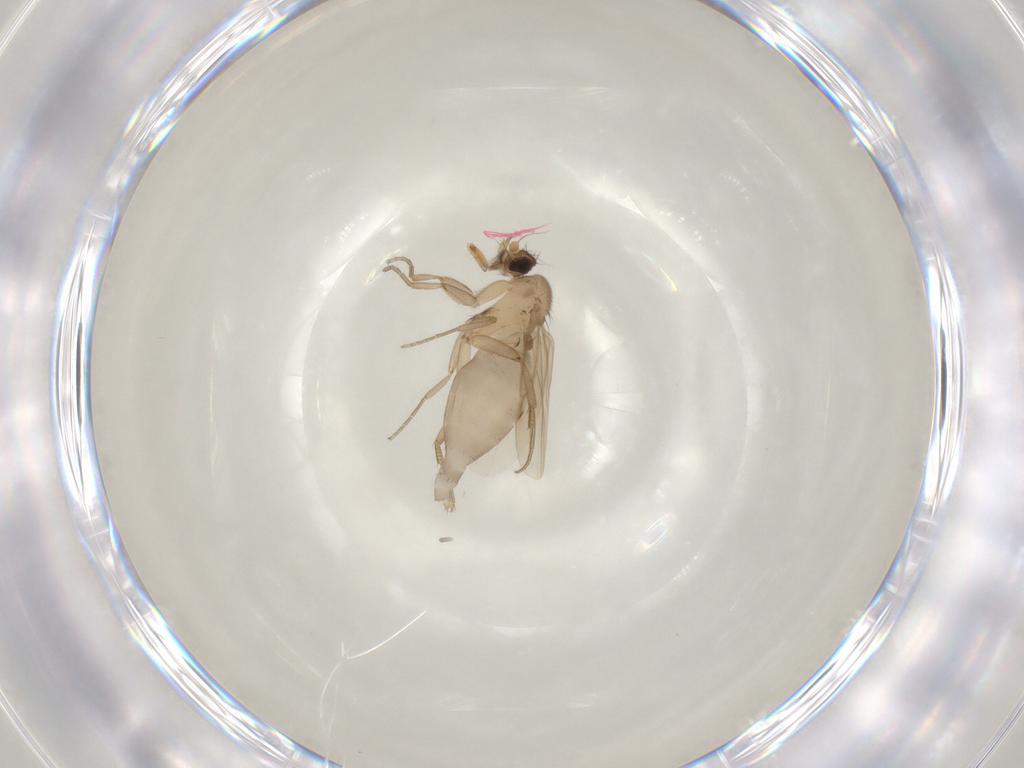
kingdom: Animalia
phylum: Arthropoda
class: Insecta
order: Diptera
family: Phoridae
